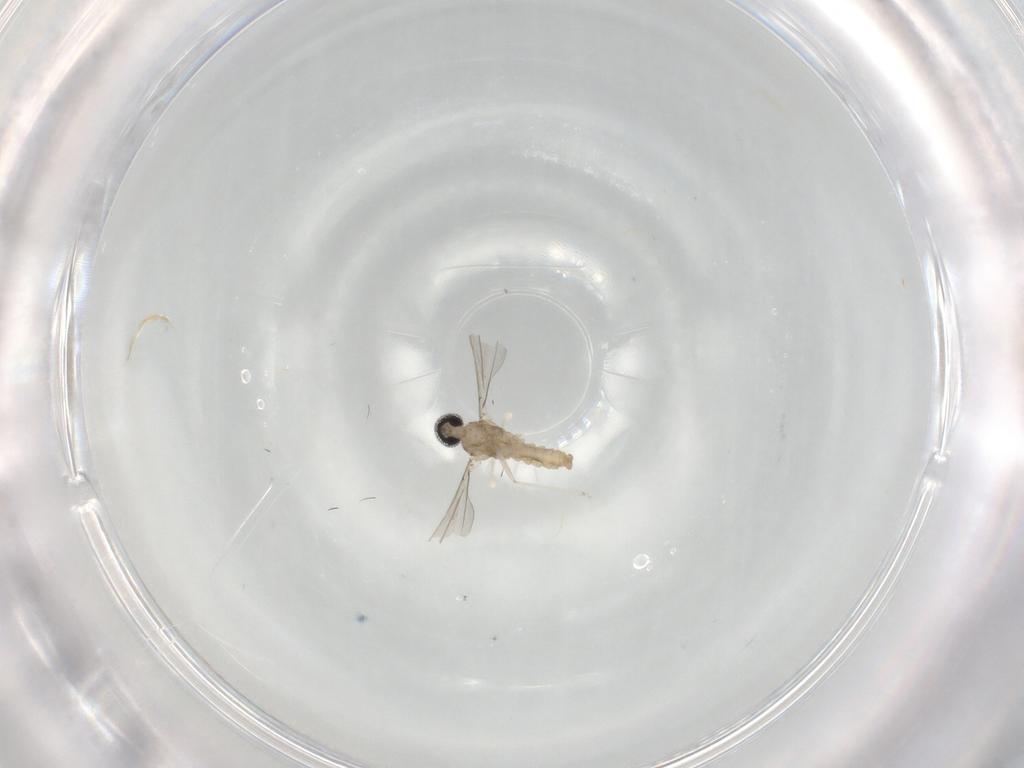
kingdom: Animalia
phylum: Arthropoda
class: Insecta
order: Diptera
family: Cecidomyiidae
